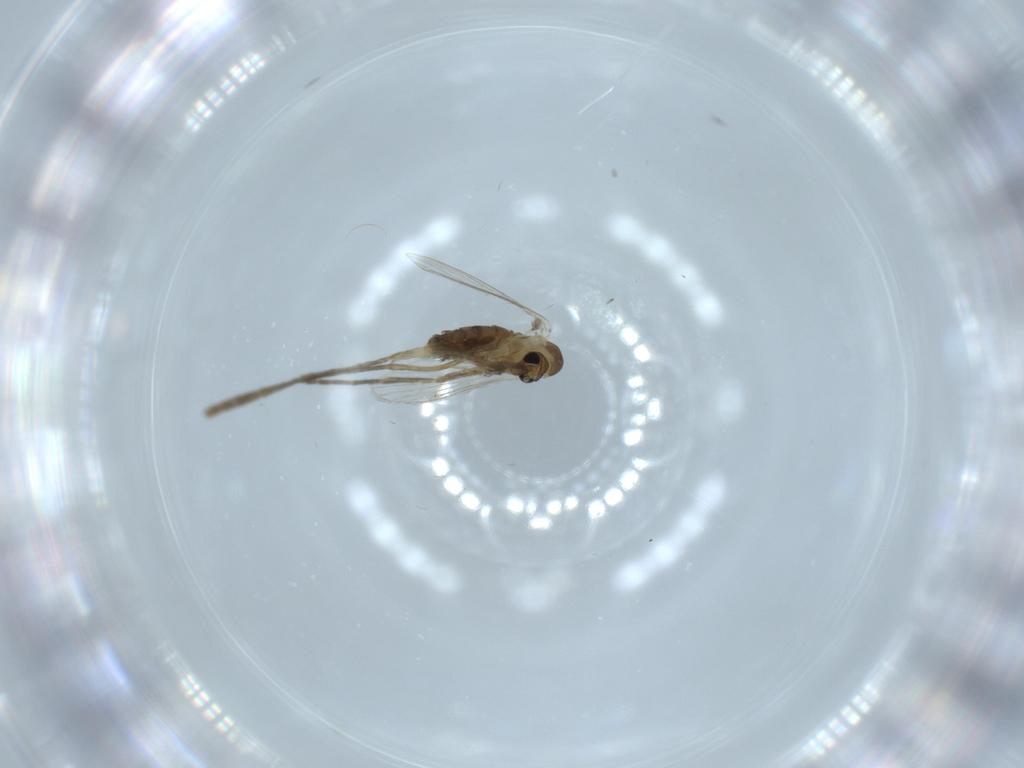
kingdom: Animalia
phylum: Arthropoda
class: Insecta
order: Diptera
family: Psychodidae
